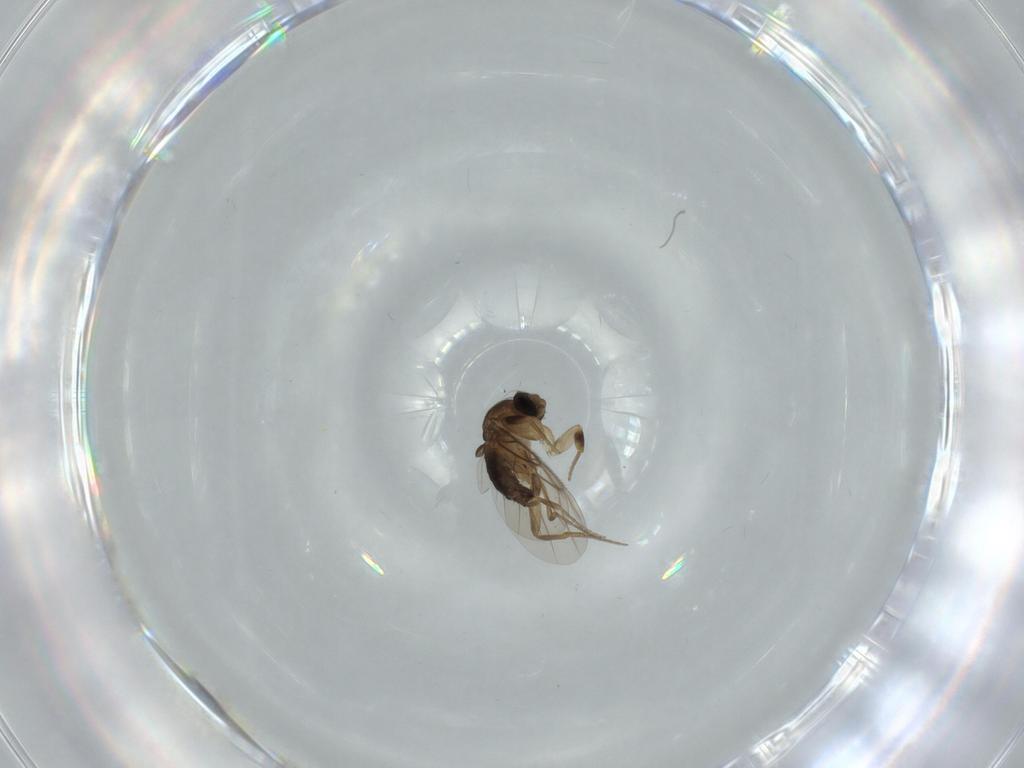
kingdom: Animalia
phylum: Arthropoda
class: Insecta
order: Diptera
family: Phoridae
